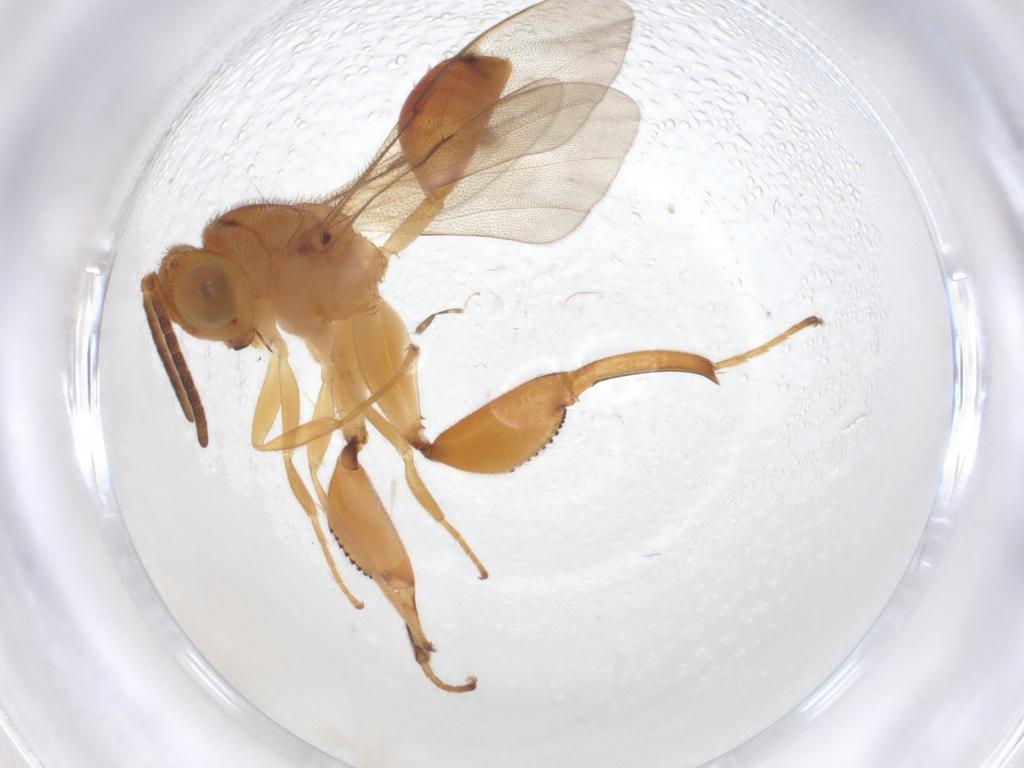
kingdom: Animalia
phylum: Arthropoda
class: Insecta
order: Hymenoptera
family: Chalcididae
